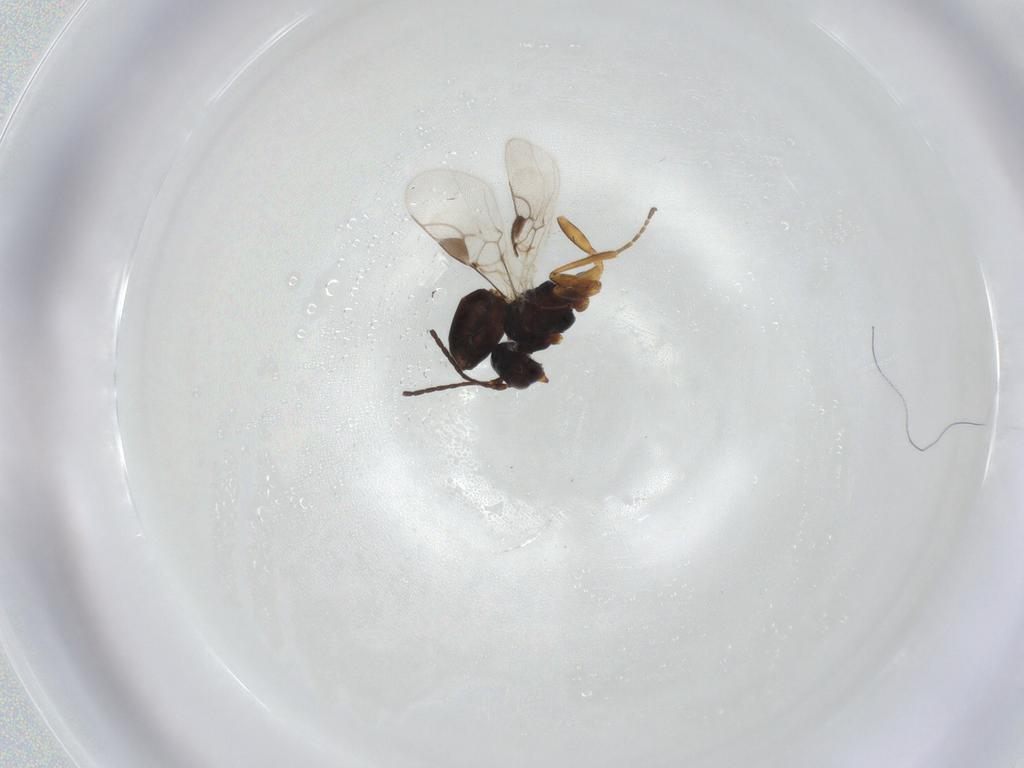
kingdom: Animalia
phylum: Arthropoda
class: Insecta
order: Hymenoptera
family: Braconidae
